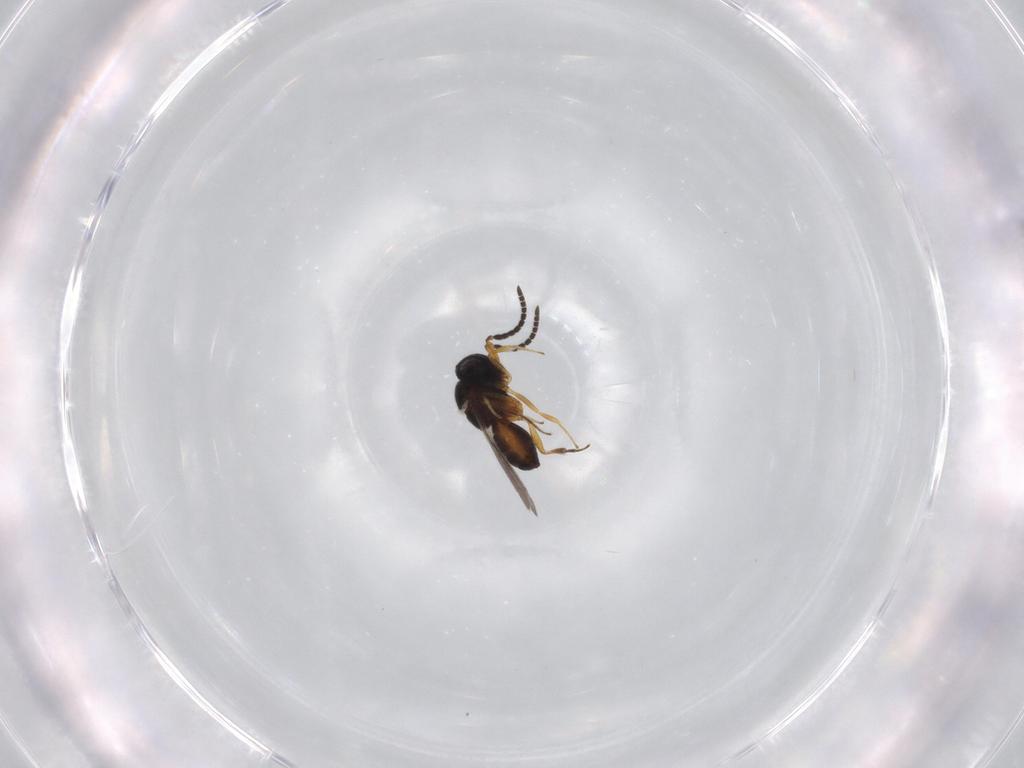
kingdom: Animalia
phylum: Arthropoda
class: Insecta
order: Hymenoptera
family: Scelionidae
